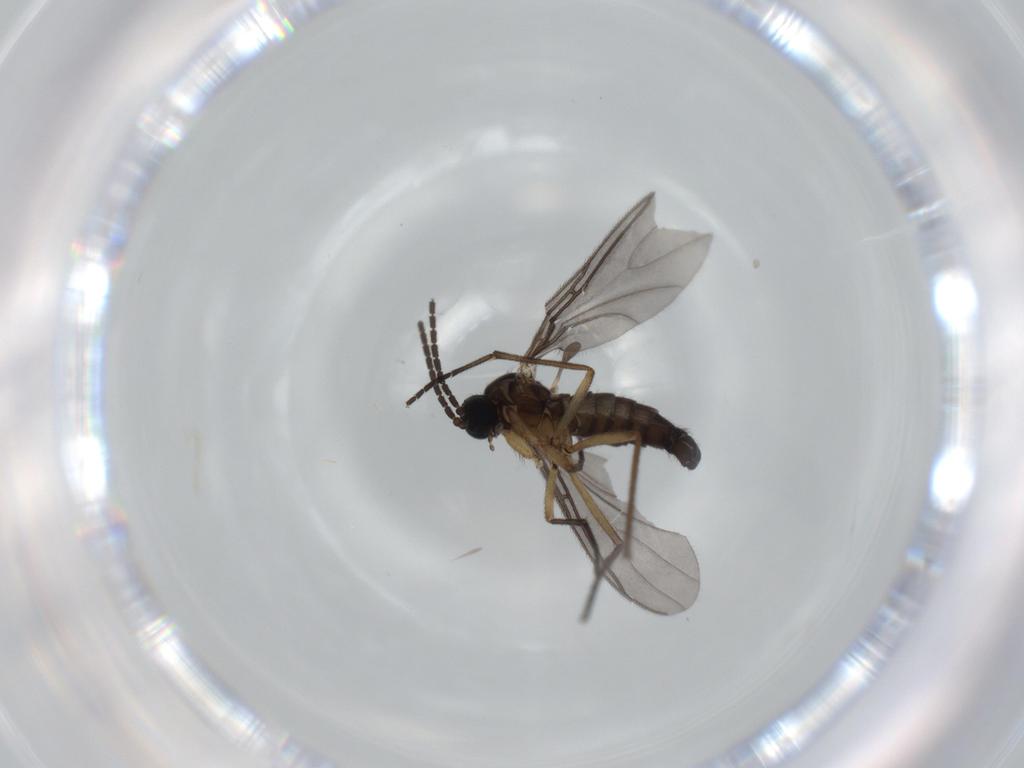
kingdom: Animalia
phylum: Arthropoda
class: Insecta
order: Diptera
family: Sciaridae
